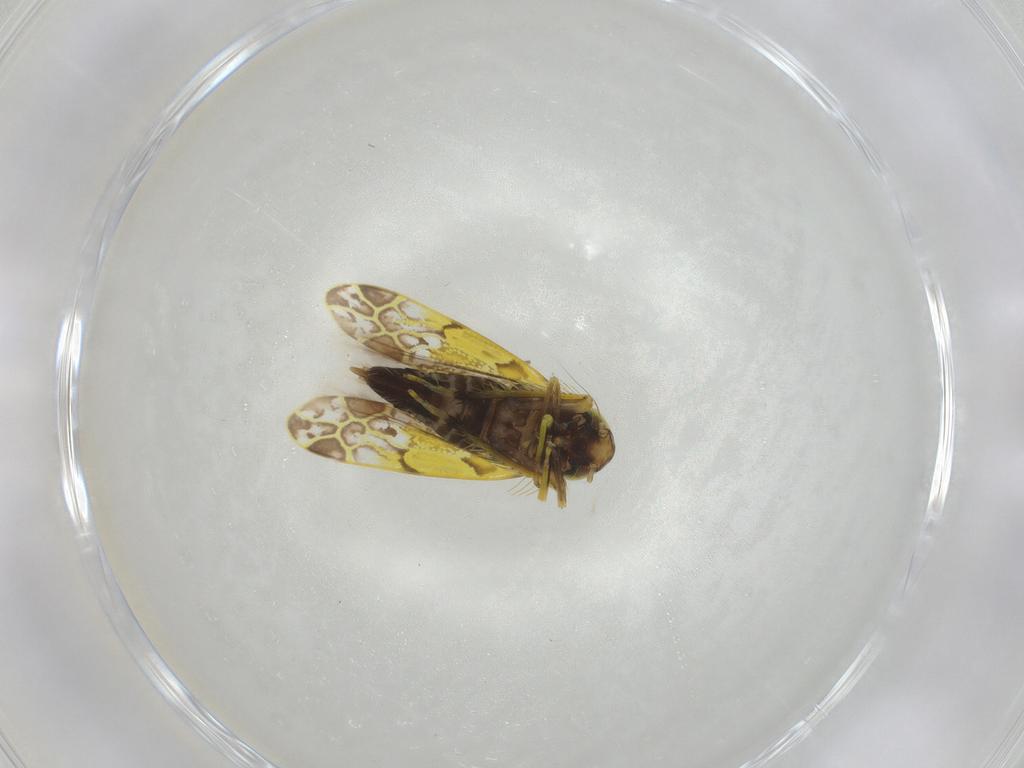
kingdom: Animalia
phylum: Arthropoda
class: Insecta
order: Hemiptera
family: Cicadellidae
